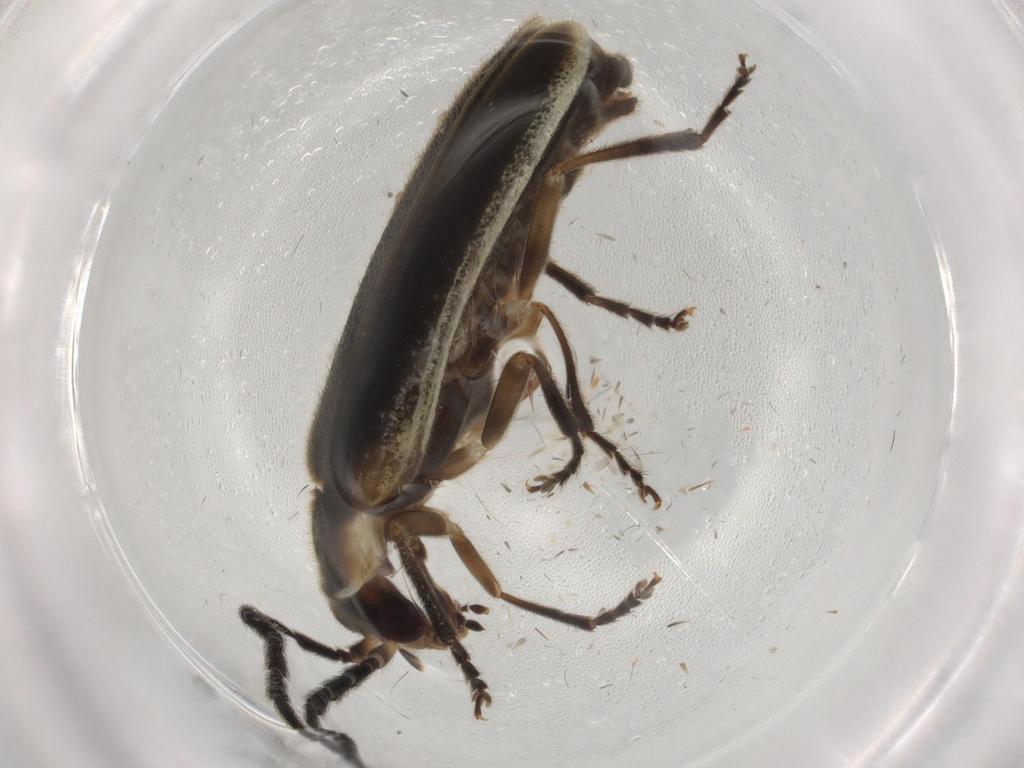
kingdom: Animalia
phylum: Arthropoda
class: Insecta
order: Coleoptera
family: Cantharidae
